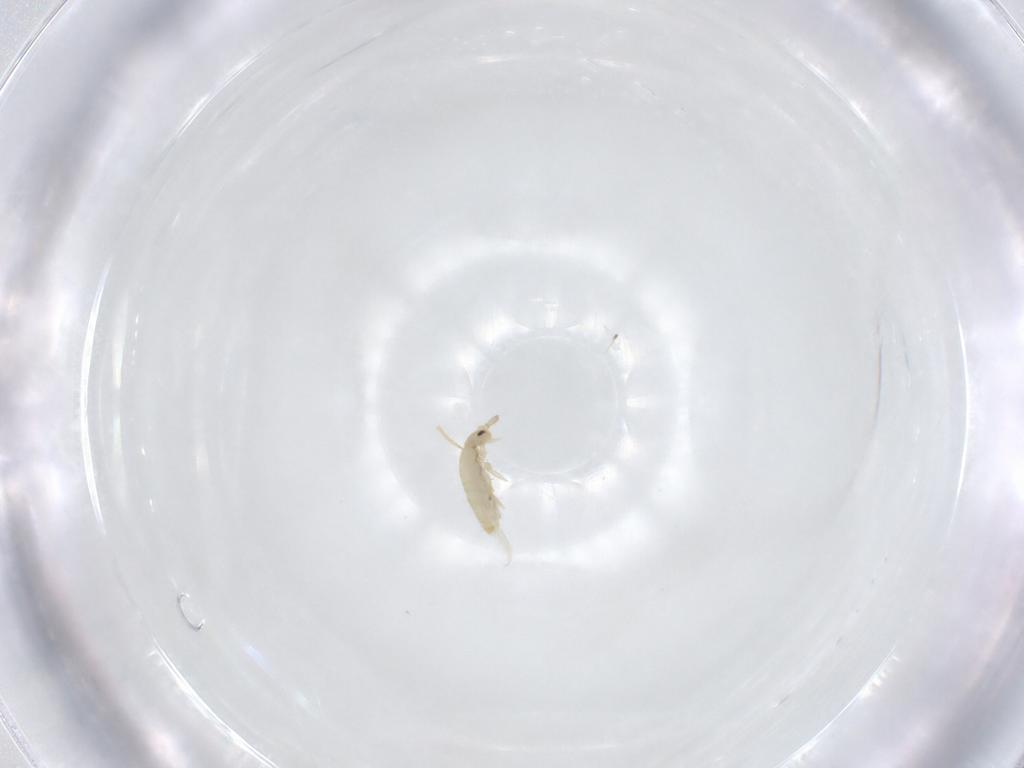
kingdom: Animalia
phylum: Arthropoda
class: Collembola
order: Entomobryomorpha
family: Entomobryidae
